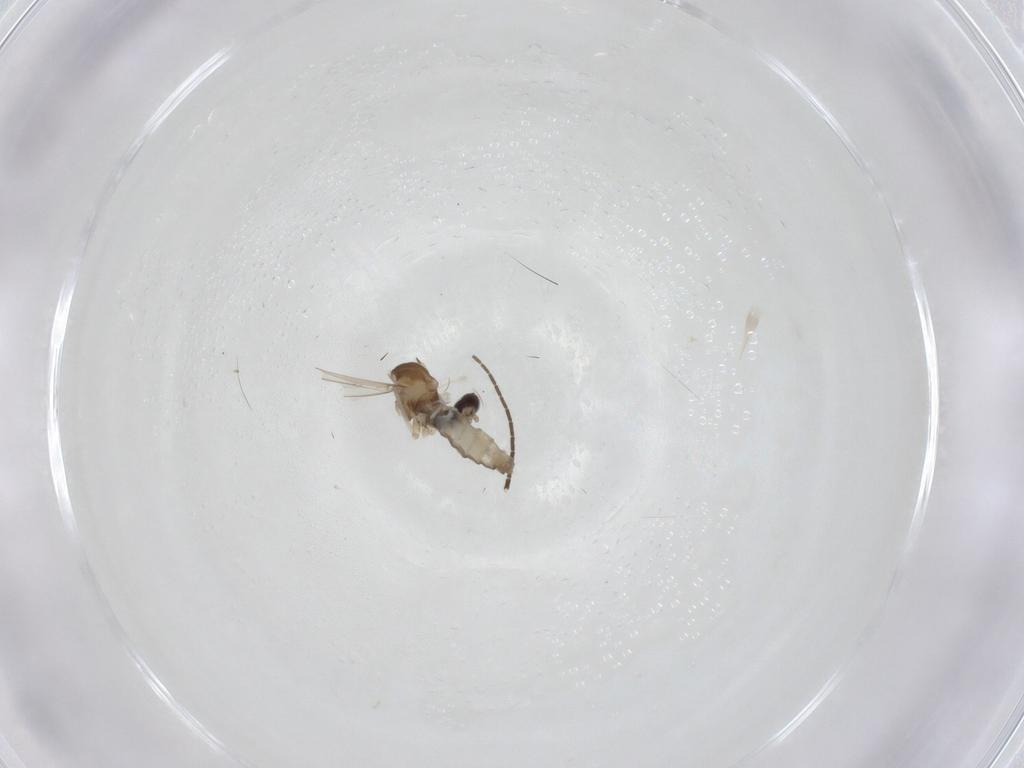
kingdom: Animalia
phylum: Arthropoda
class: Insecta
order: Diptera
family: Sciaridae
